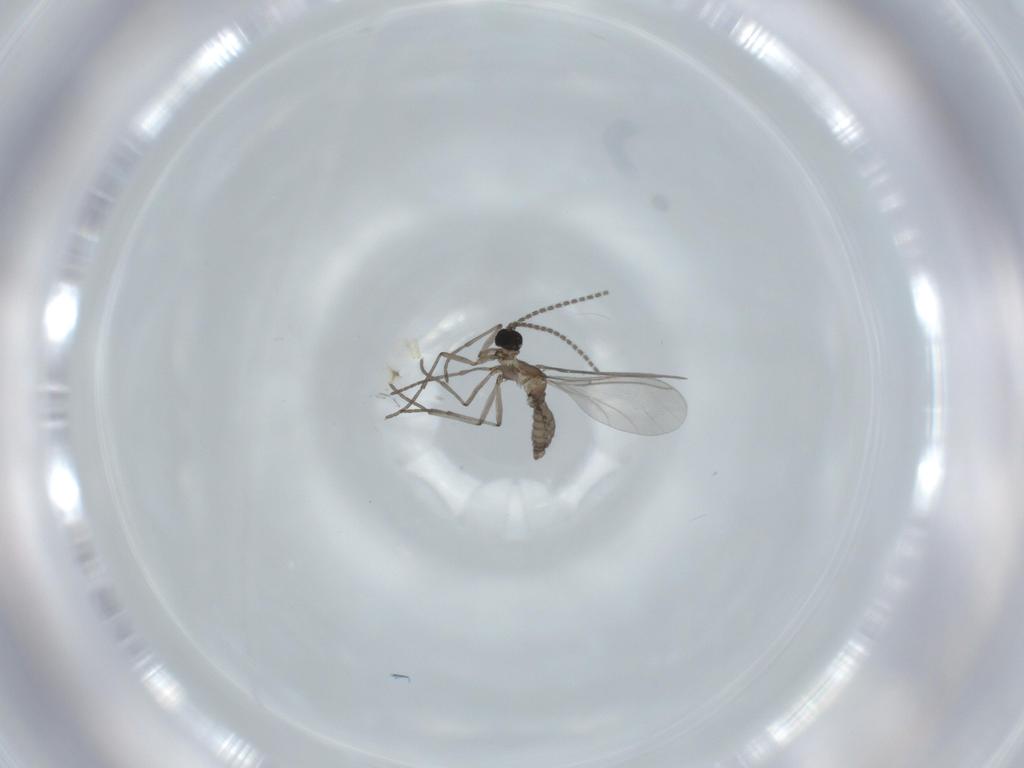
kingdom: Animalia
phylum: Arthropoda
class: Insecta
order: Diptera
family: Sciaridae
